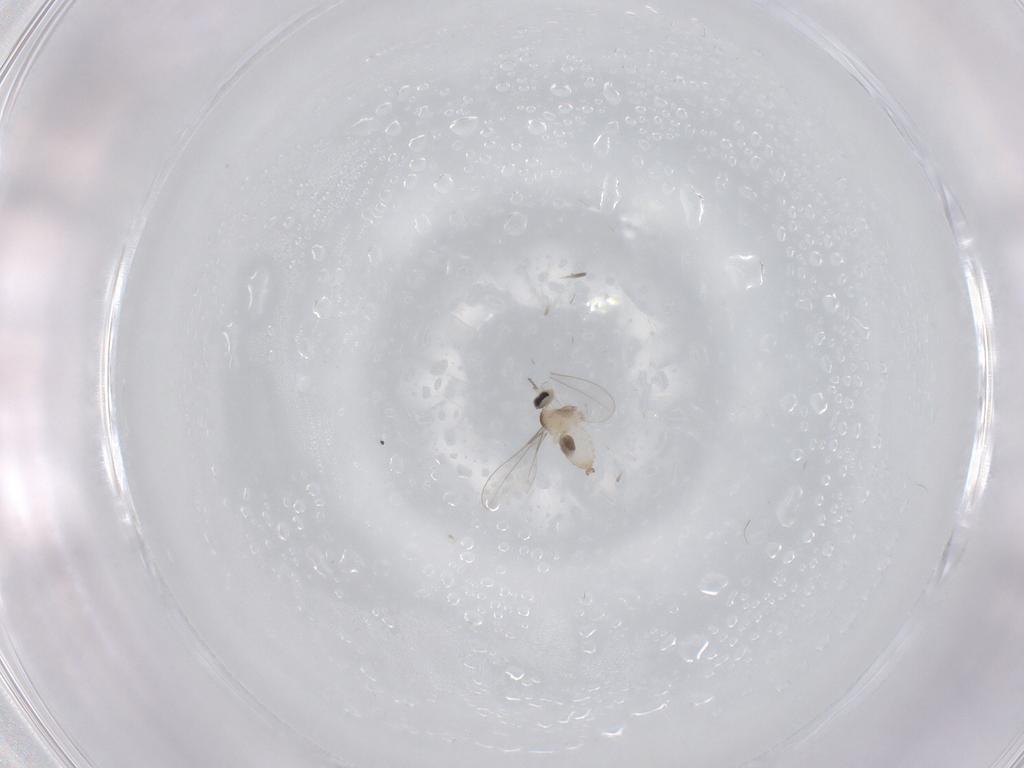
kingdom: Animalia
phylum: Arthropoda
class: Insecta
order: Diptera
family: Cecidomyiidae
